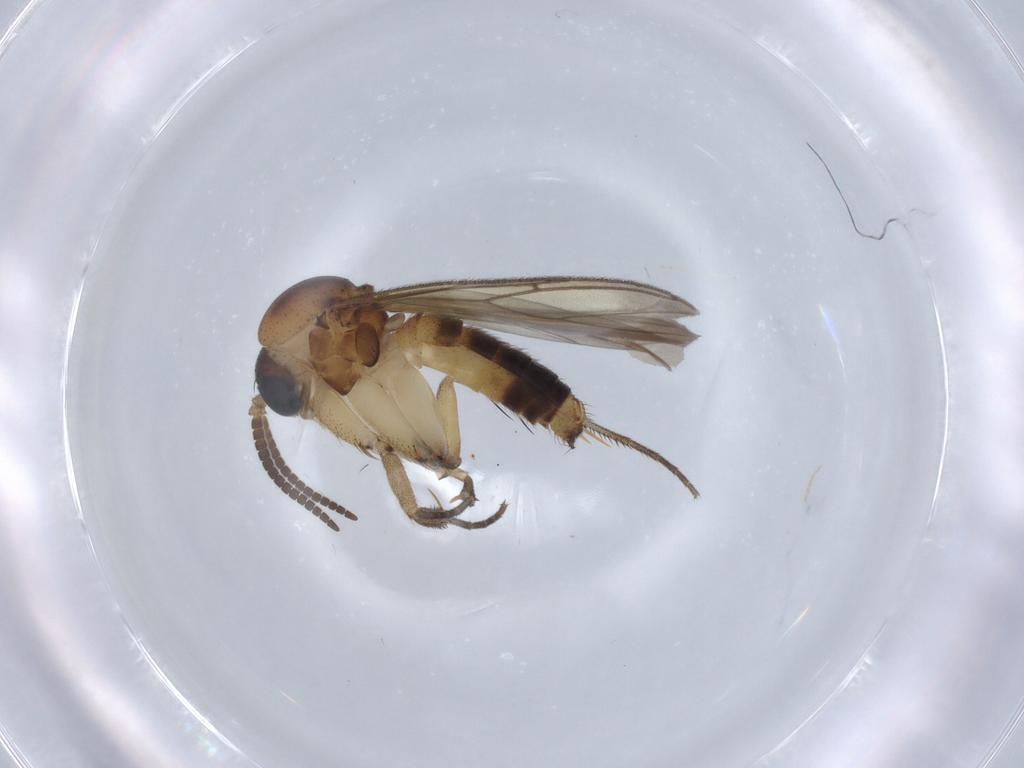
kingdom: Animalia
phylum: Arthropoda
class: Insecta
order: Diptera
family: Mycetophilidae
